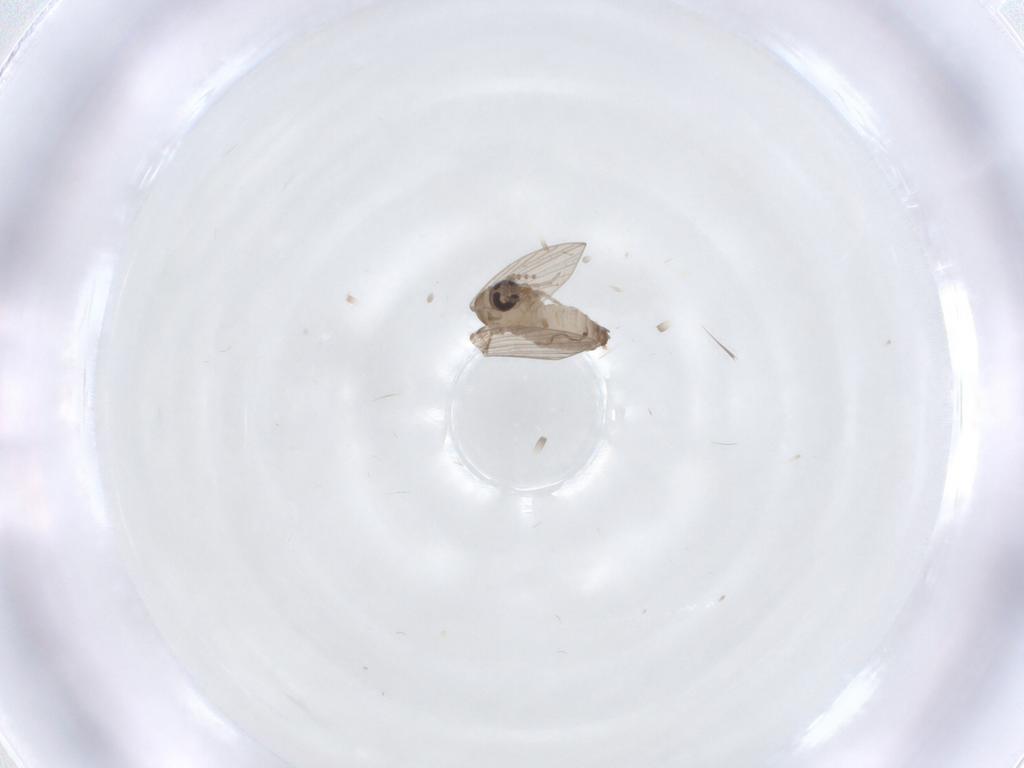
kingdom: Animalia
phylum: Arthropoda
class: Insecta
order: Diptera
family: Psychodidae
